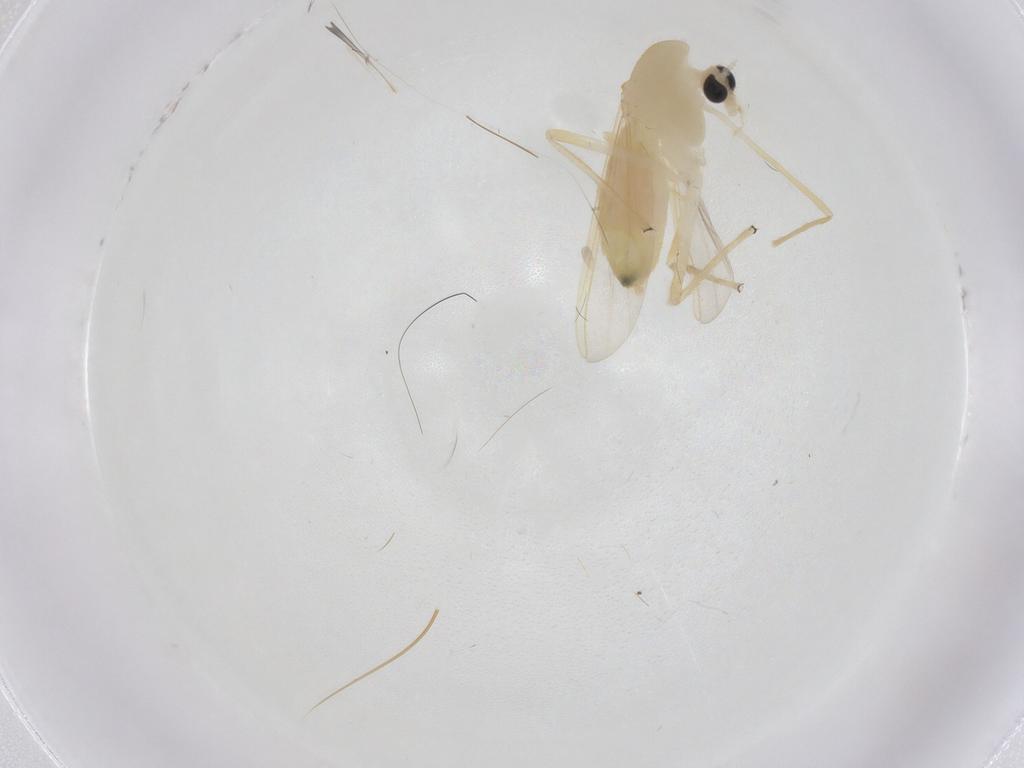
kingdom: Animalia
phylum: Arthropoda
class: Insecta
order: Diptera
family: Chironomidae
